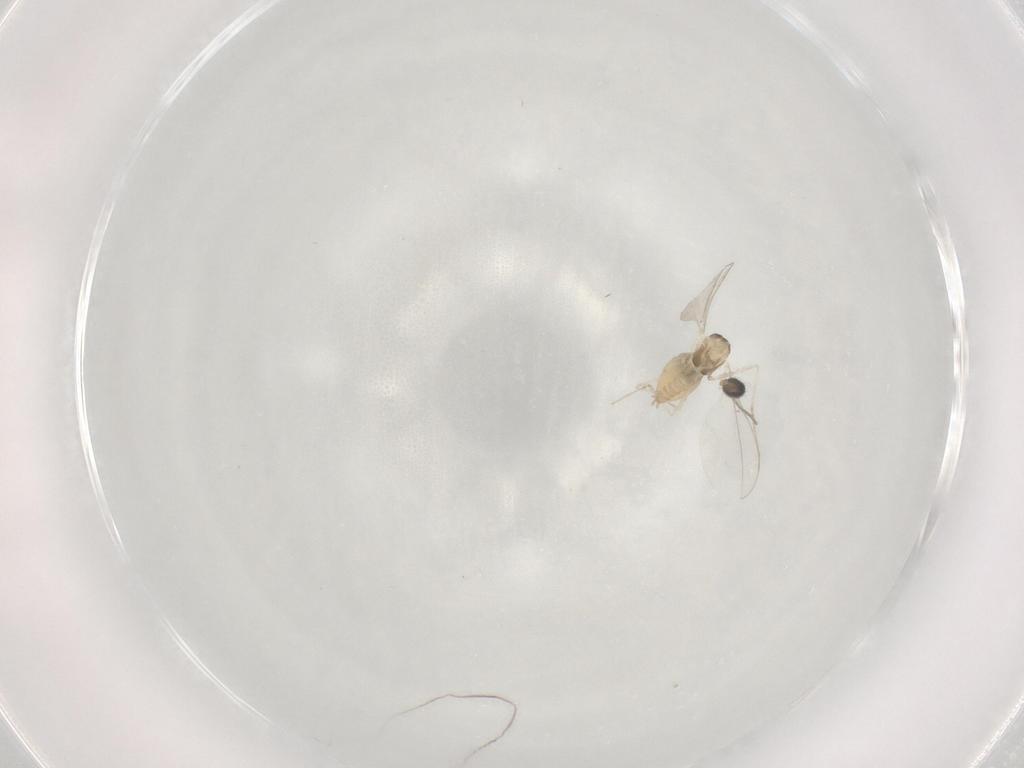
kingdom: Animalia
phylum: Arthropoda
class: Insecta
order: Diptera
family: Cecidomyiidae
